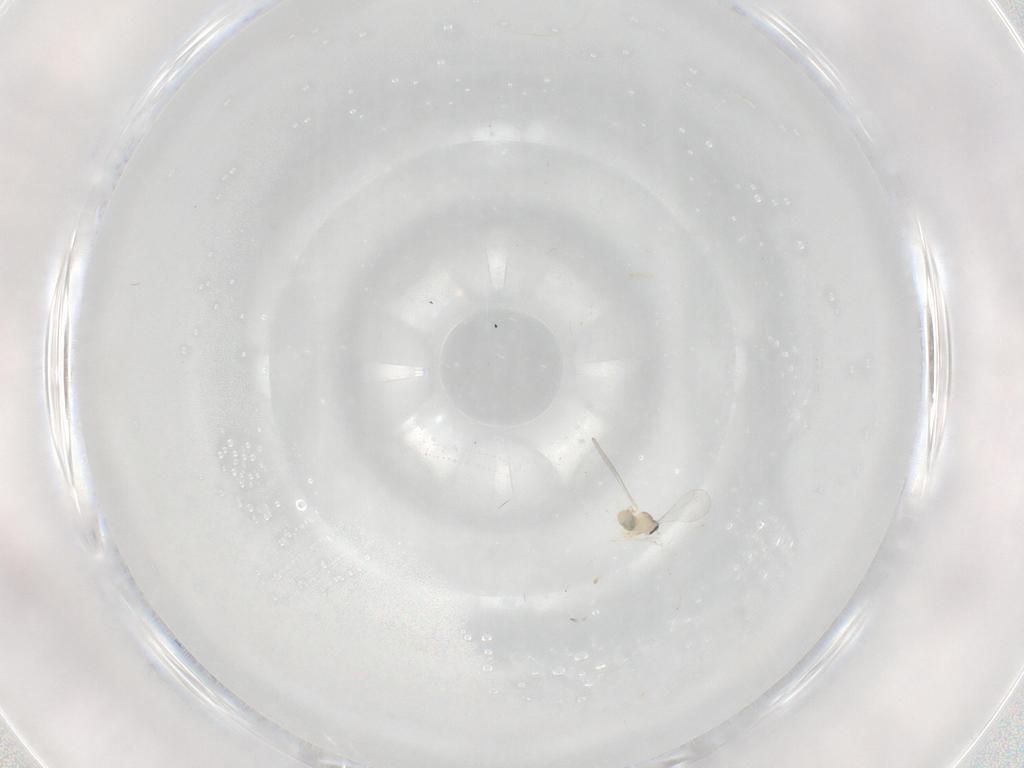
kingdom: Animalia
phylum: Arthropoda
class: Insecta
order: Diptera
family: Cecidomyiidae
